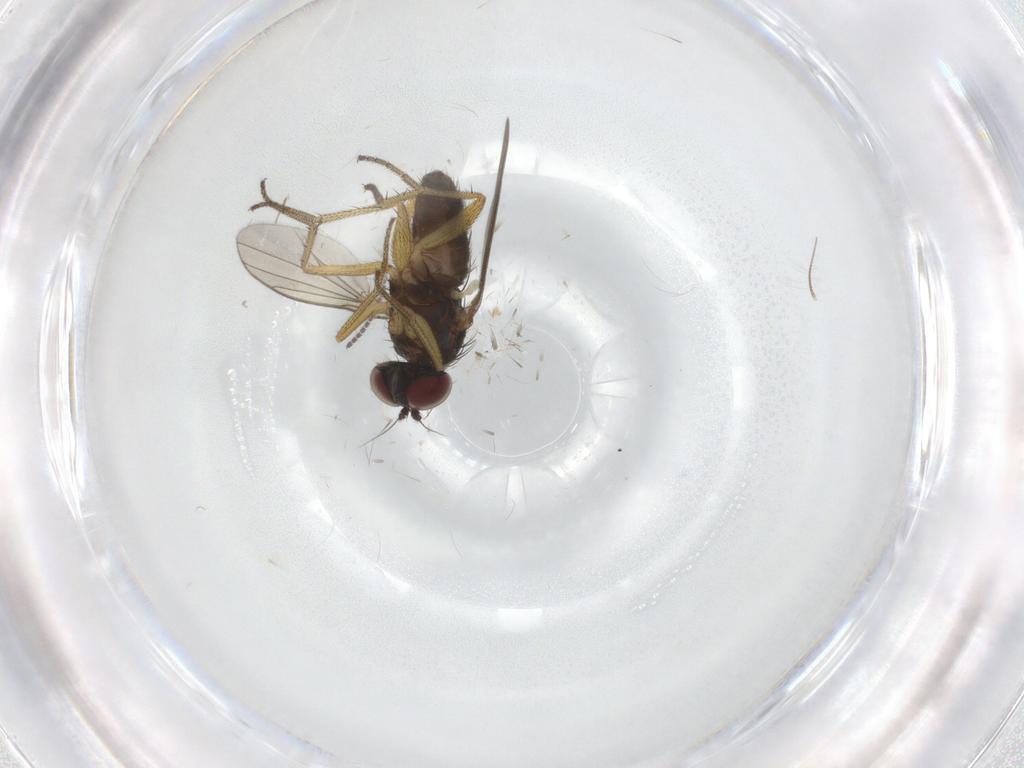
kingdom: Animalia
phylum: Arthropoda
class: Insecta
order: Diptera
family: Sciaridae
